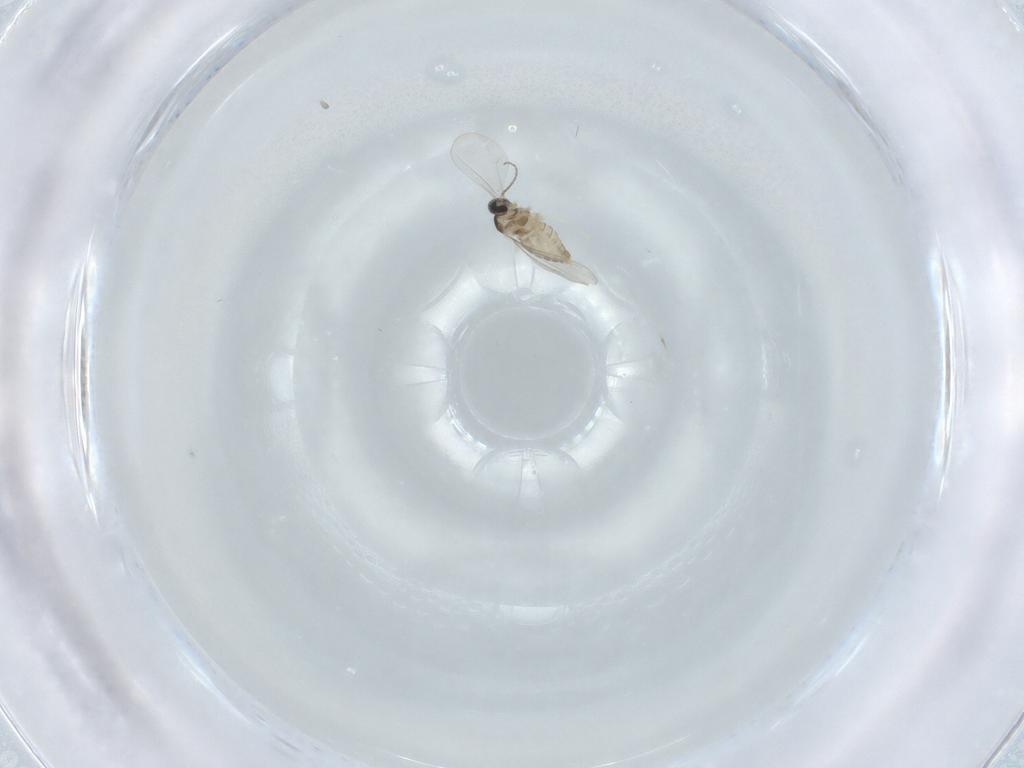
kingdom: Animalia
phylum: Arthropoda
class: Insecta
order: Diptera
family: Cecidomyiidae
